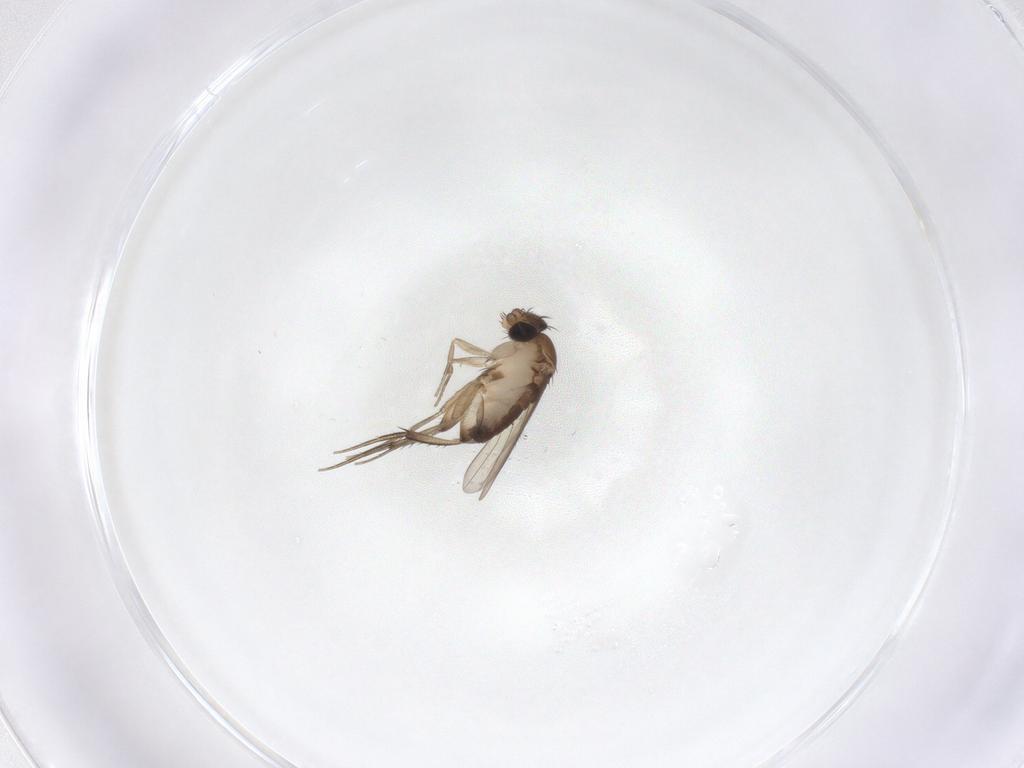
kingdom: Animalia
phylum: Arthropoda
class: Insecta
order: Diptera
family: Phoridae
